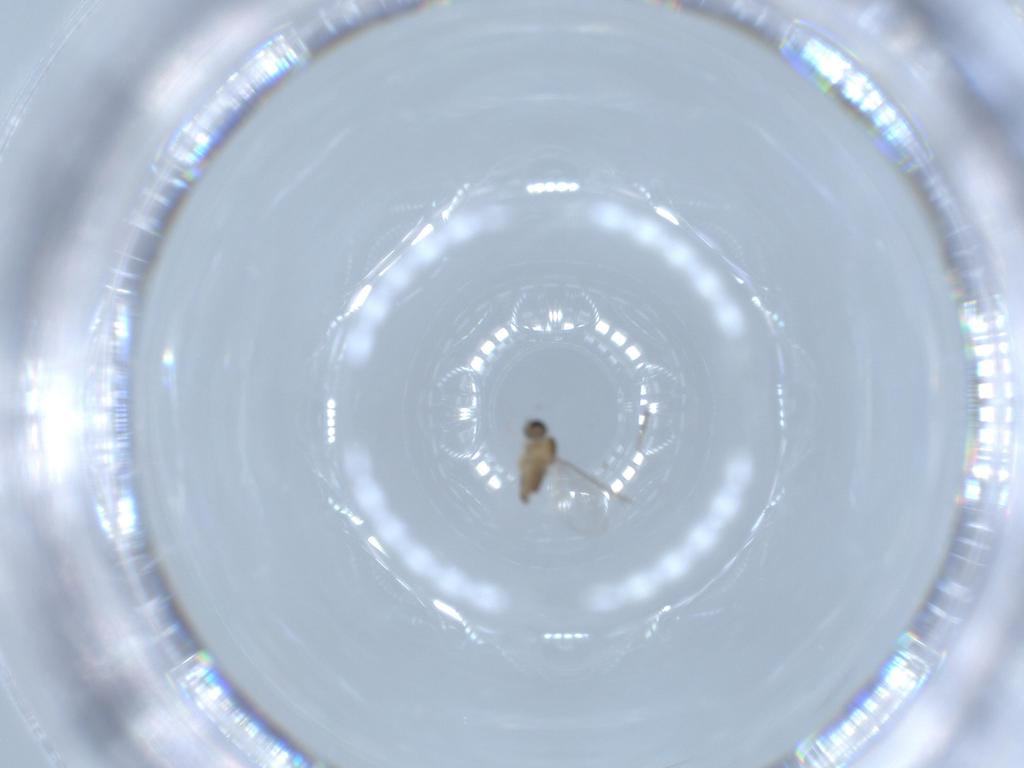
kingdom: Animalia
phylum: Arthropoda
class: Insecta
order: Diptera
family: Cecidomyiidae
